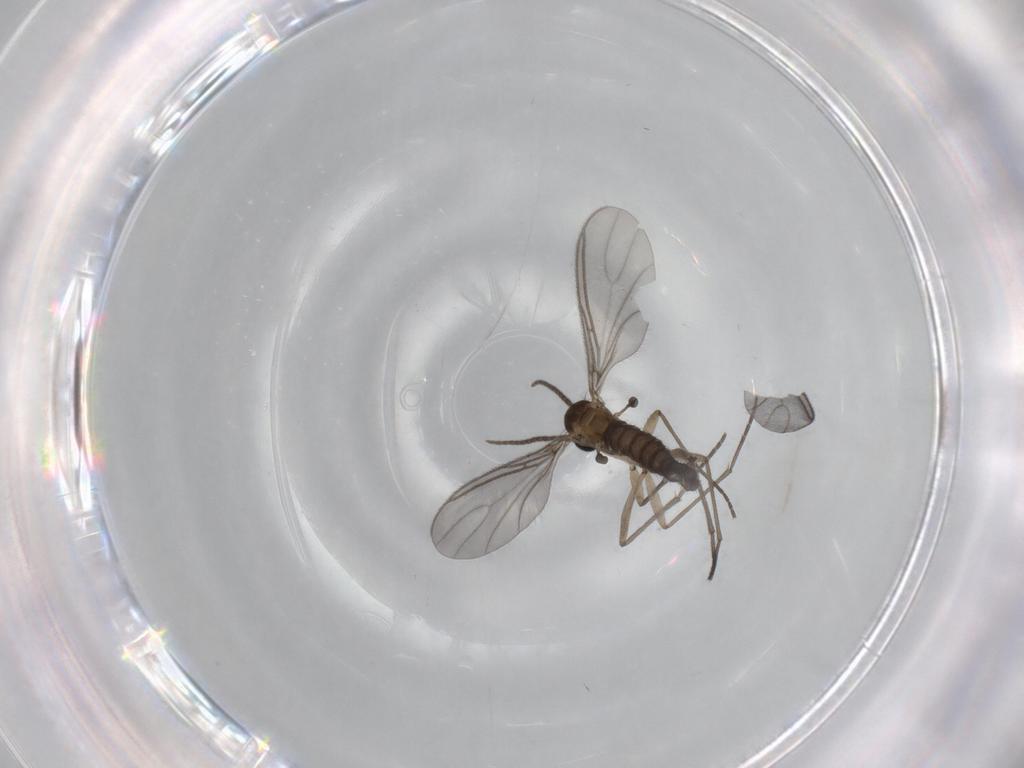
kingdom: Animalia
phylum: Arthropoda
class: Insecta
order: Diptera
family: Sciaridae
